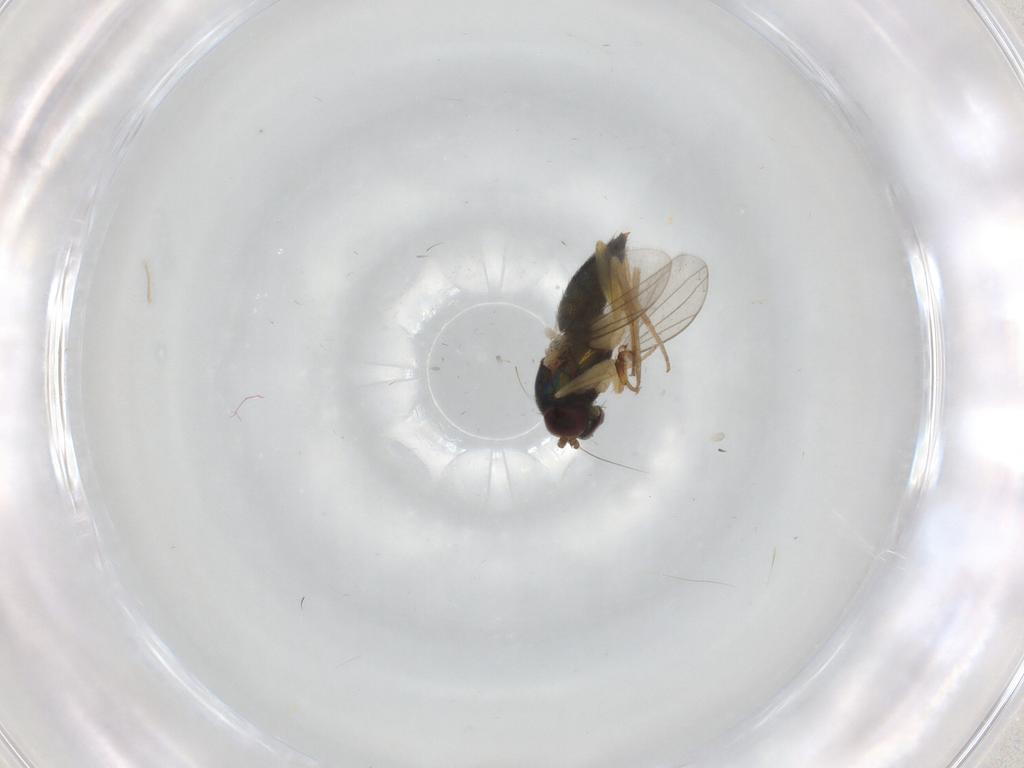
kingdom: Animalia
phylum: Arthropoda
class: Insecta
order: Diptera
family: Dolichopodidae
